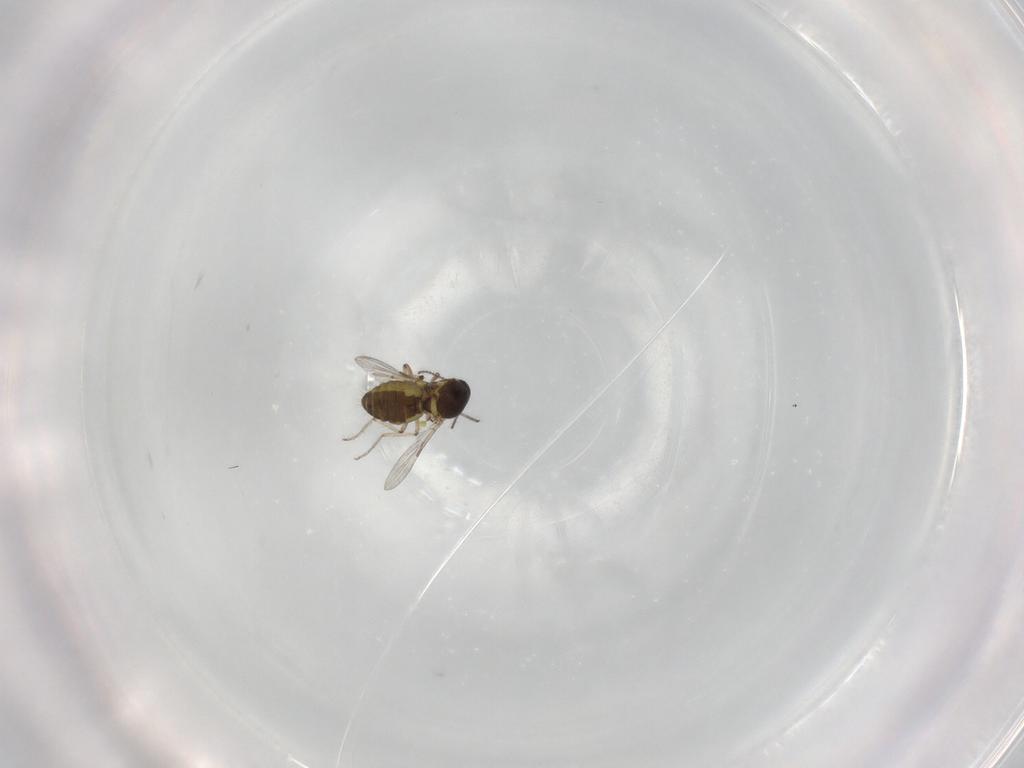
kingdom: Animalia
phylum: Arthropoda
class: Insecta
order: Diptera
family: Ceratopogonidae
